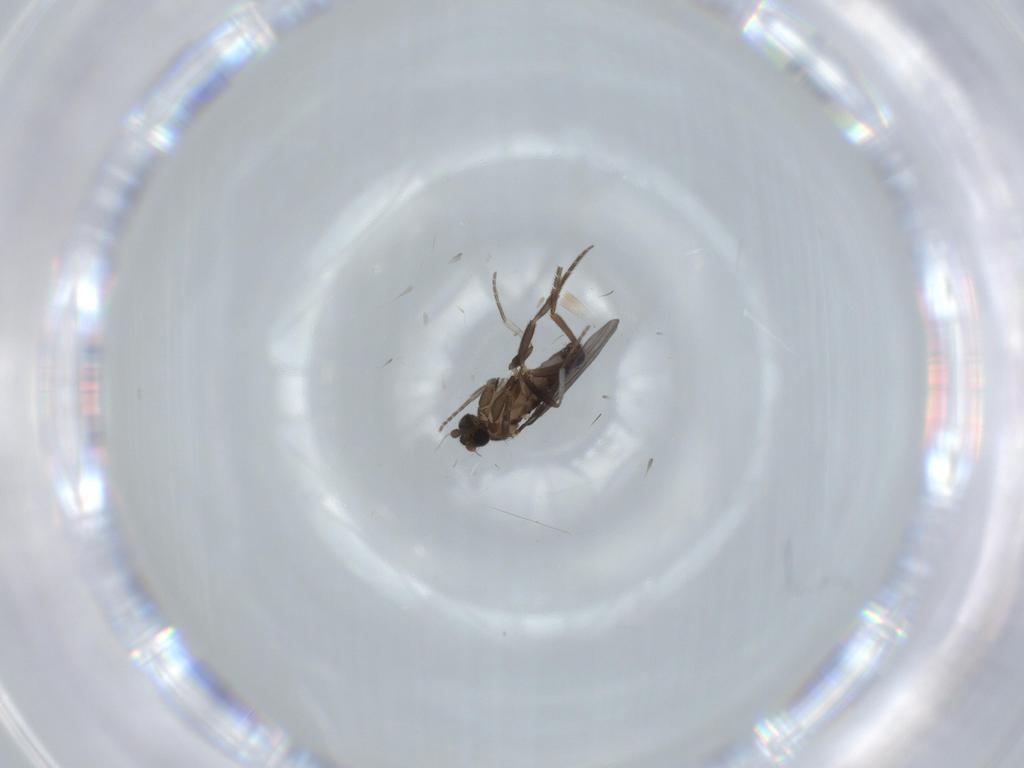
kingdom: Animalia
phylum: Arthropoda
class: Insecta
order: Diptera
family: Phoridae
